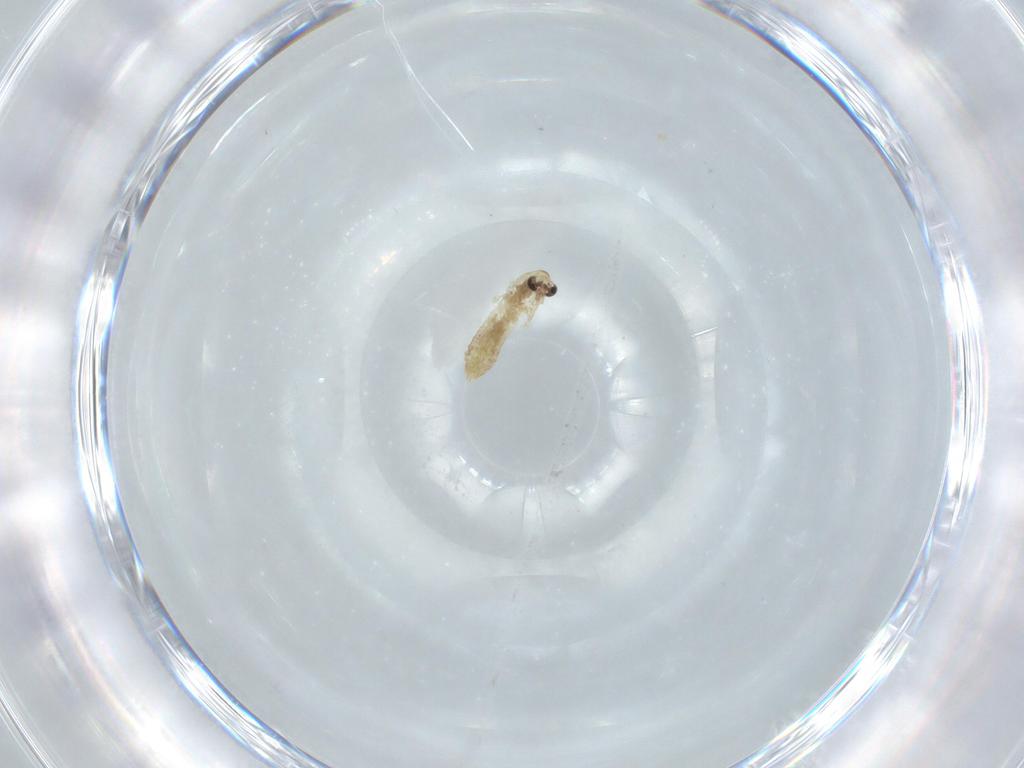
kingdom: Animalia
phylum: Arthropoda
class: Insecta
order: Diptera
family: Chironomidae
